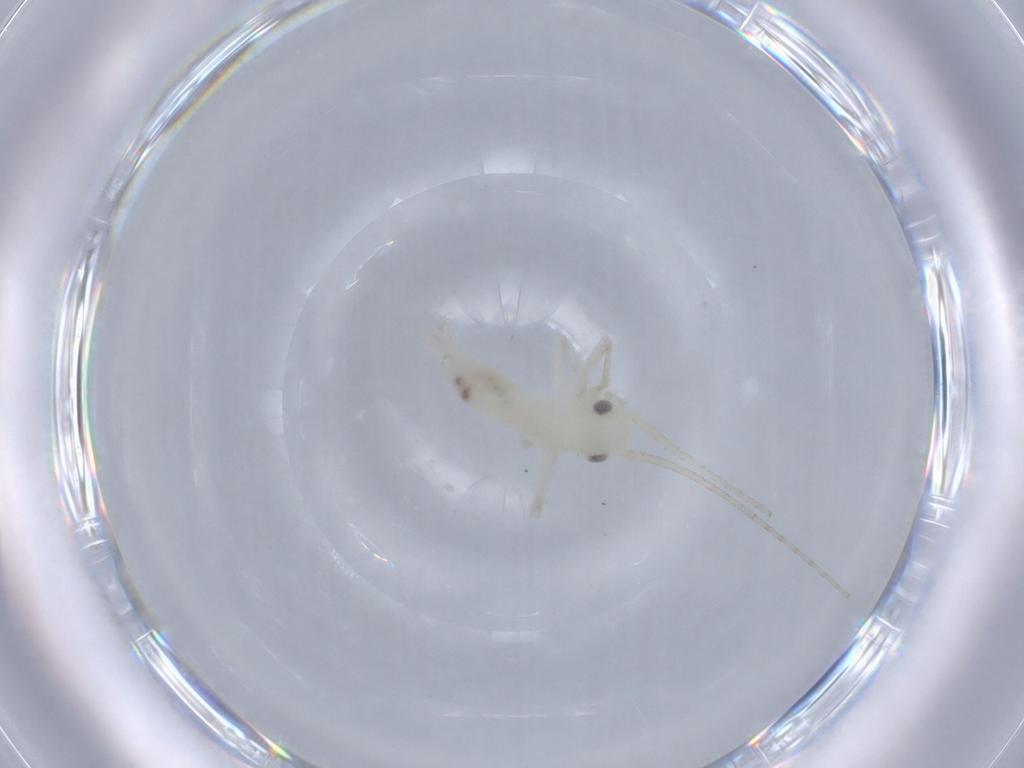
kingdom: Animalia
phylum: Arthropoda
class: Insecta
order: Orthoptera
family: Trigonidiidae
